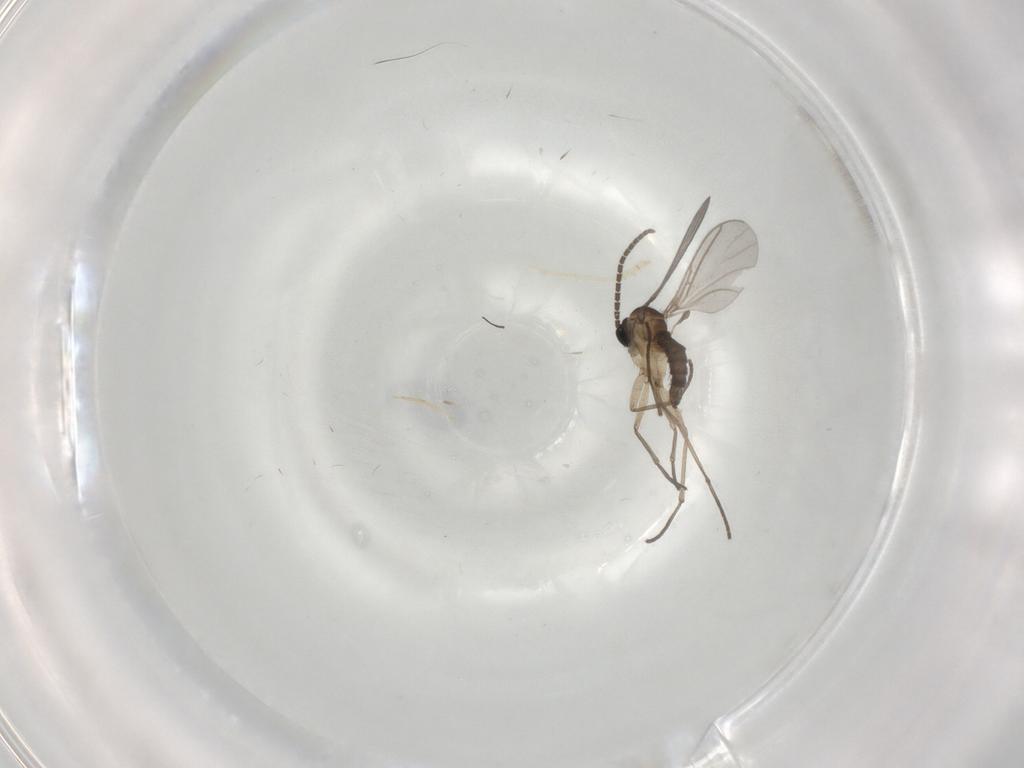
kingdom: Animalia
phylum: Arthropoda
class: Insecta
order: Diptera
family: Sciaridae
